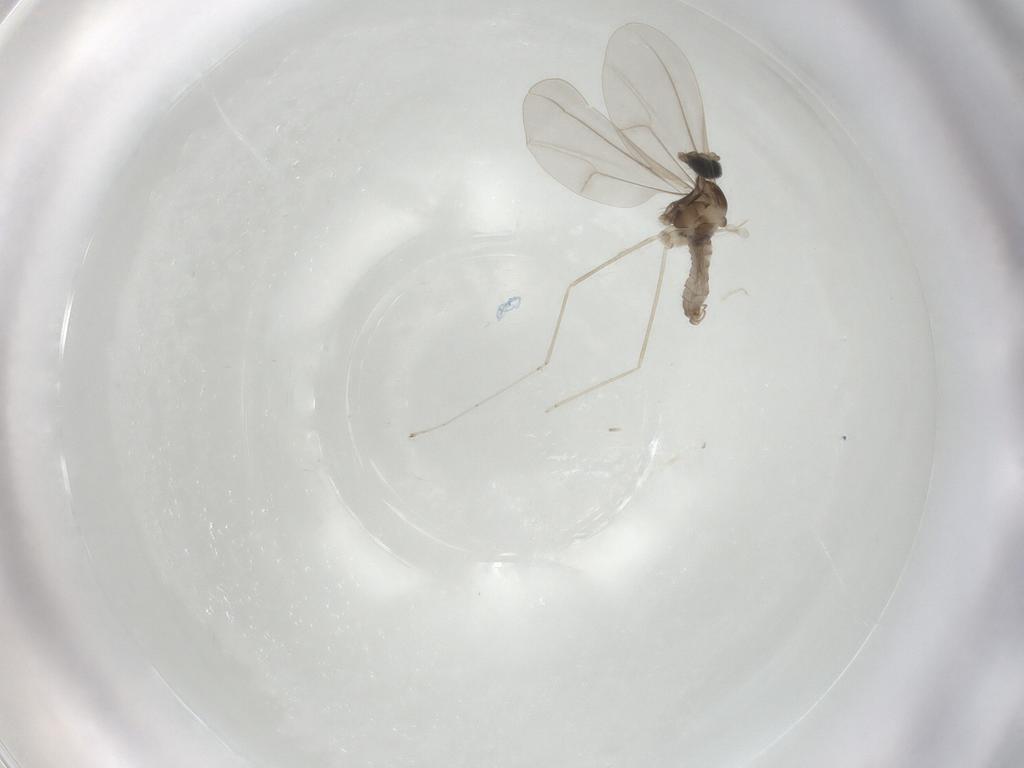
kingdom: Animalia
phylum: Arthropoda
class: Insecta
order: Diptera
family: Cecidomyiidae
